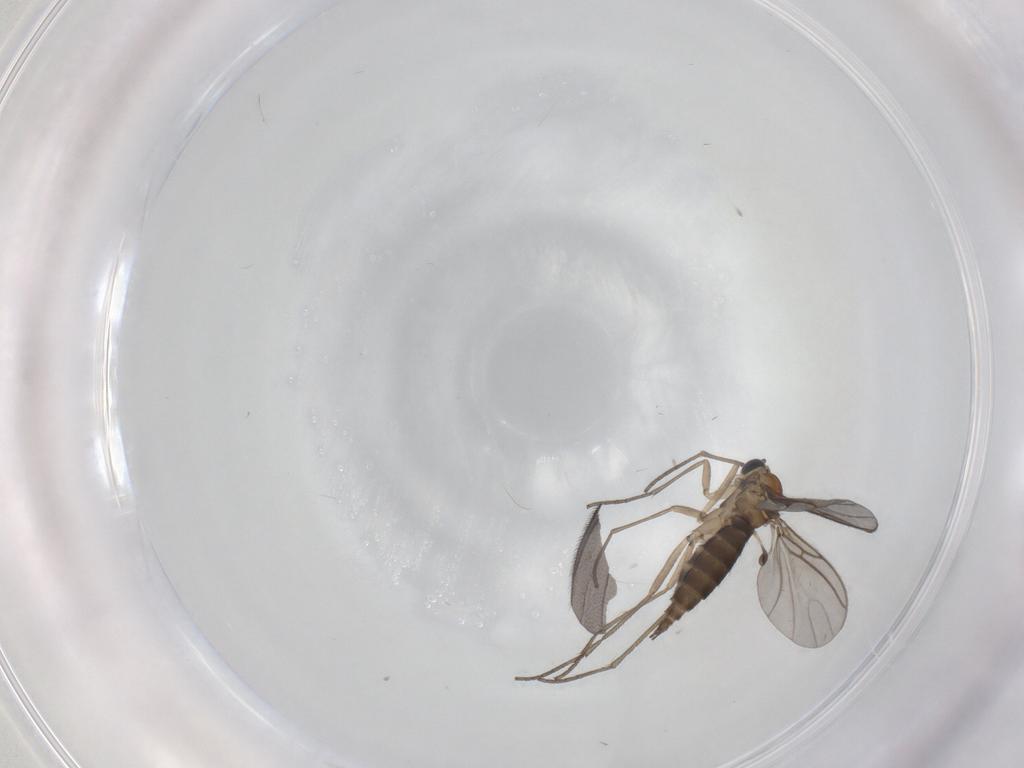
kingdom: Animalia
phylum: Arthropoda
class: Insecta
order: Diptera
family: Sciaridae
